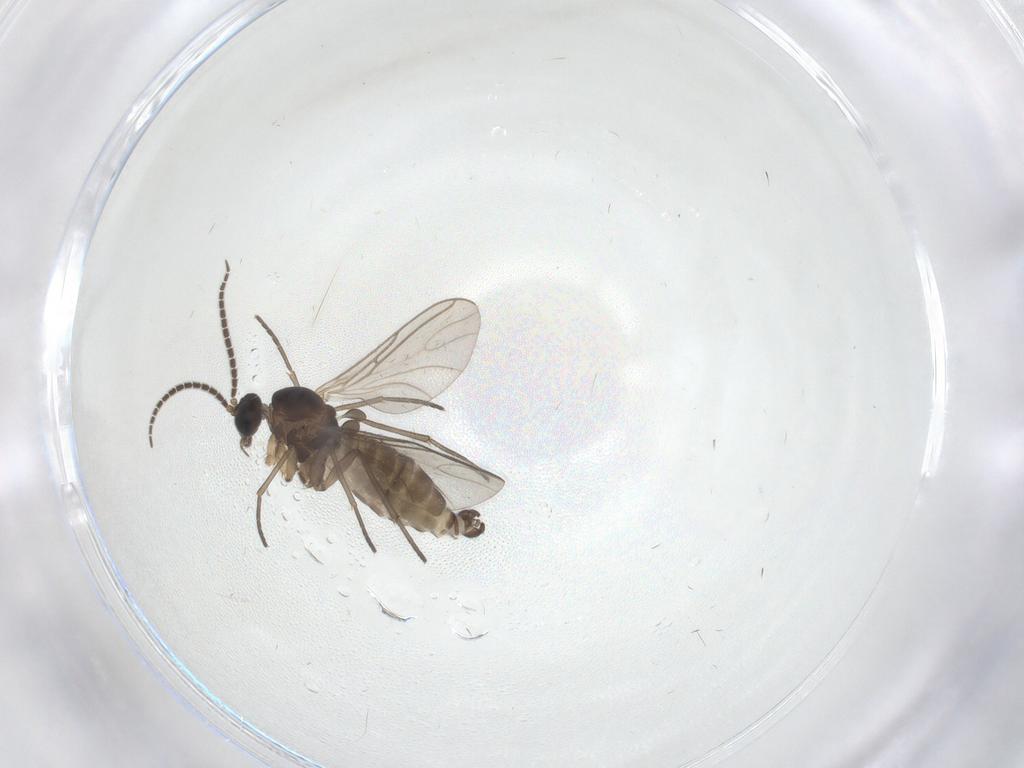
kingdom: Animalia
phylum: Arthropoda
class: Insecta
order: Diptera
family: Sciaridae
